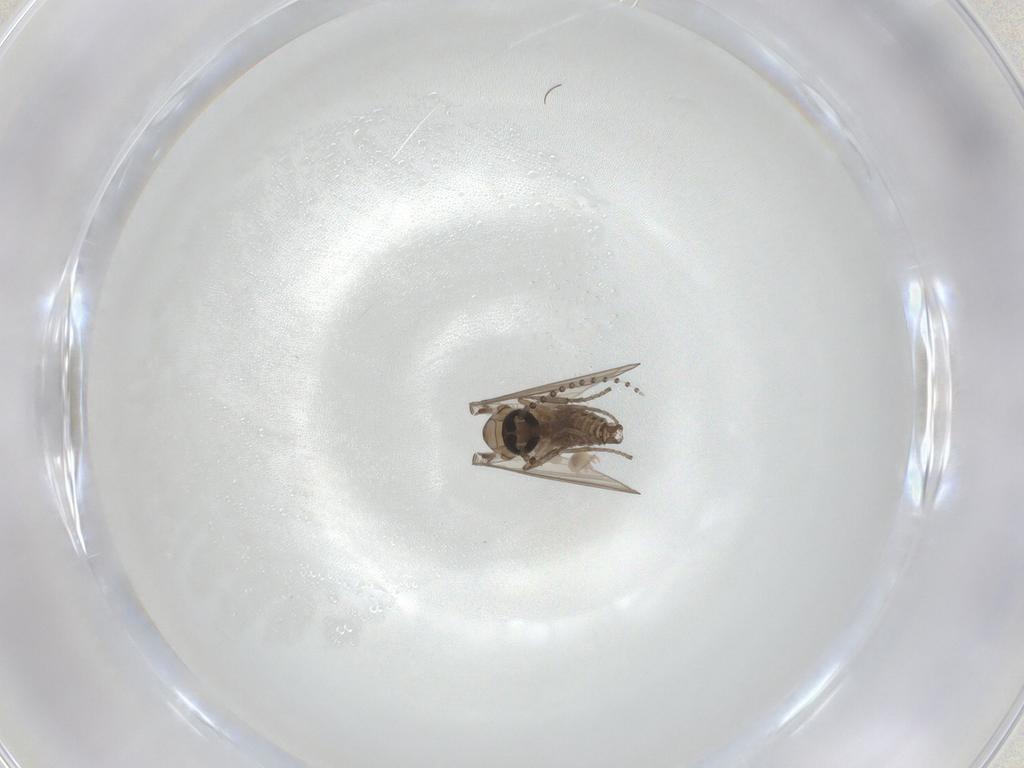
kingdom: Animalia
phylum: Arthropoda
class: Insecta
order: Diptera
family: Psychodidae
